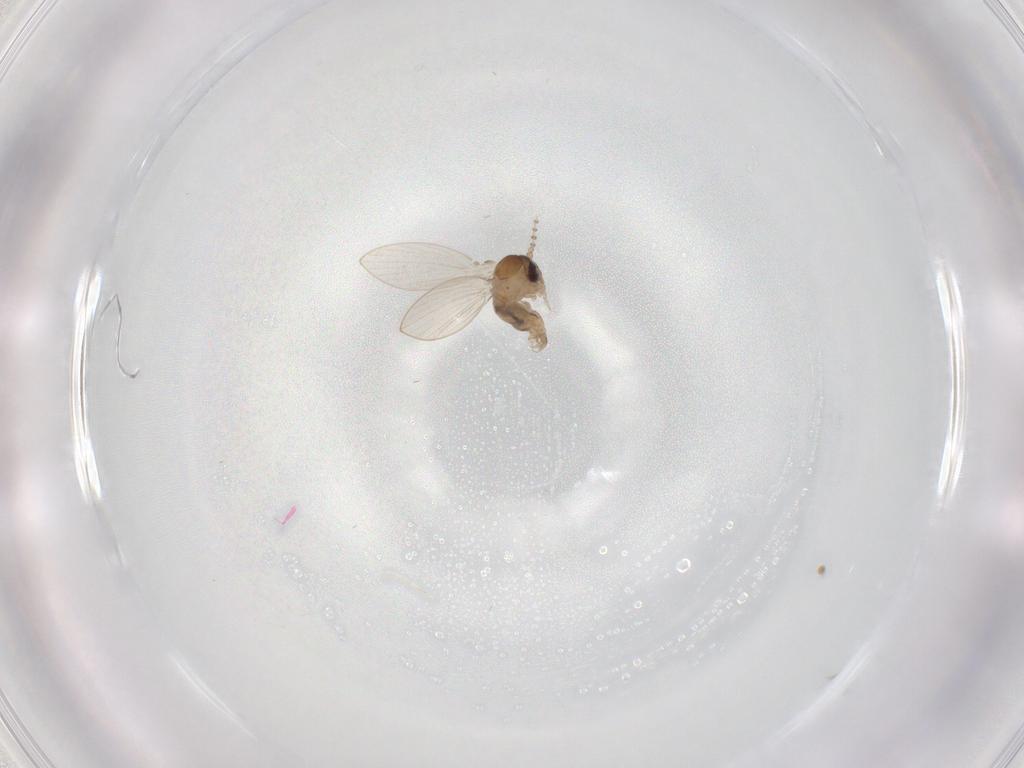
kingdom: Animalia
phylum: Arthropoda
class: Insecta
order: Diptera
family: Psychodidae
